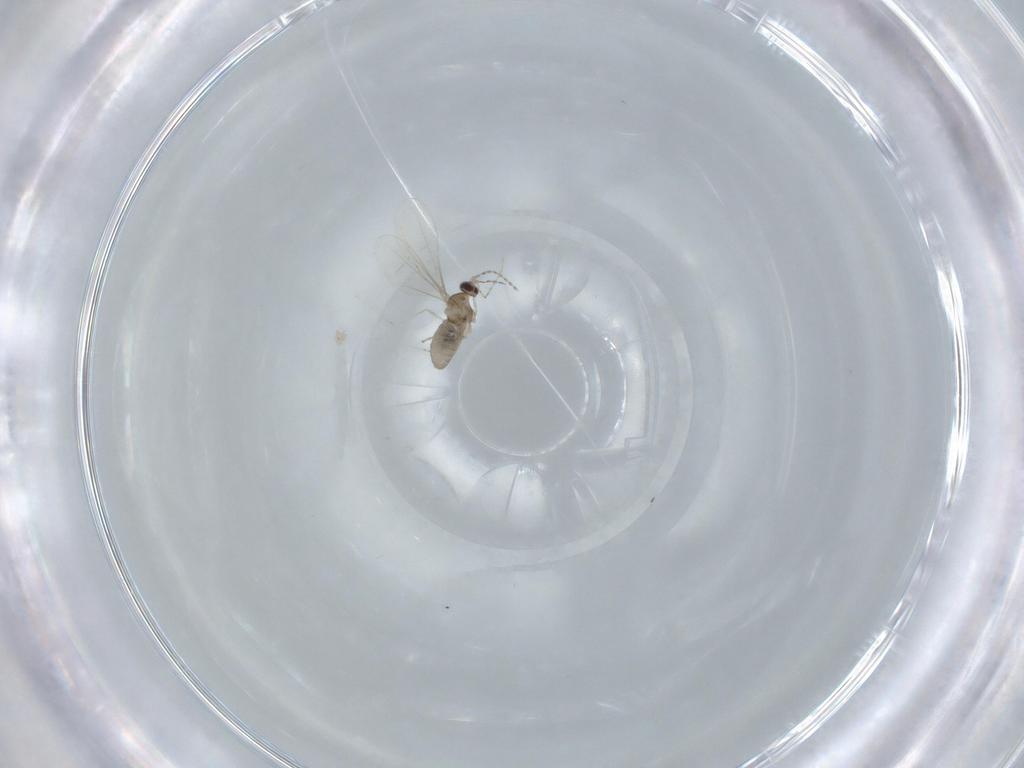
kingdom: Animalia
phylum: Arthropoda
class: Insecta
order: Diptera
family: Cecidomyiidae
